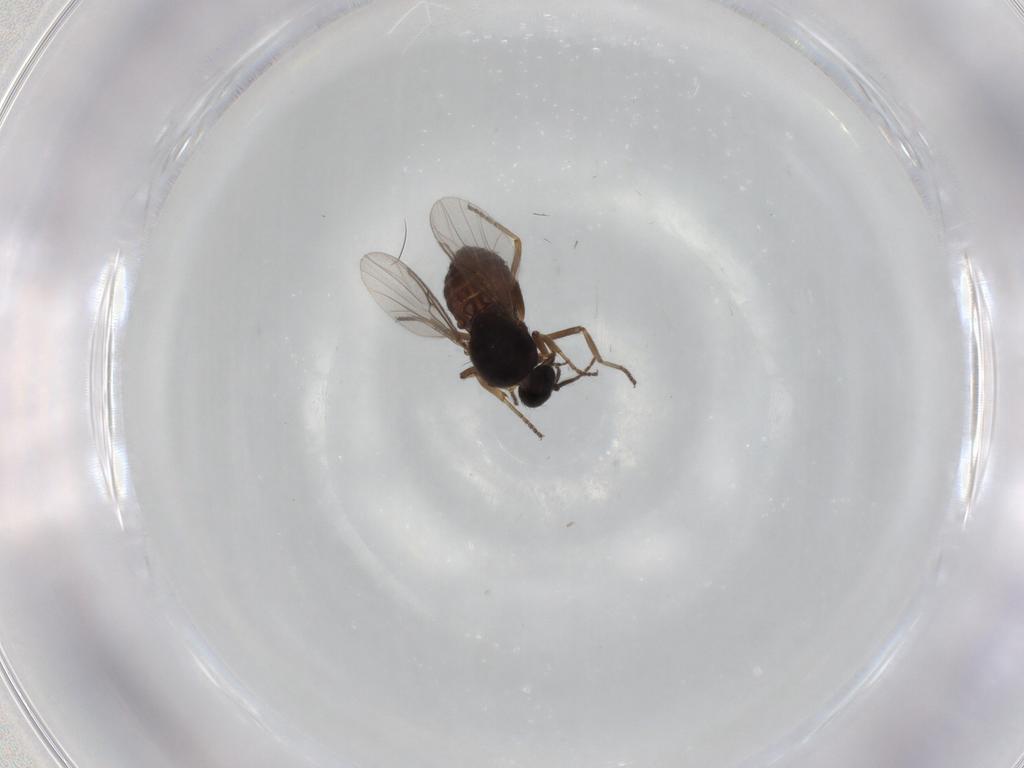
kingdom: Animalia
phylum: Arthropoda
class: Insecta
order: Diptera
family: Ceratopogonidae
